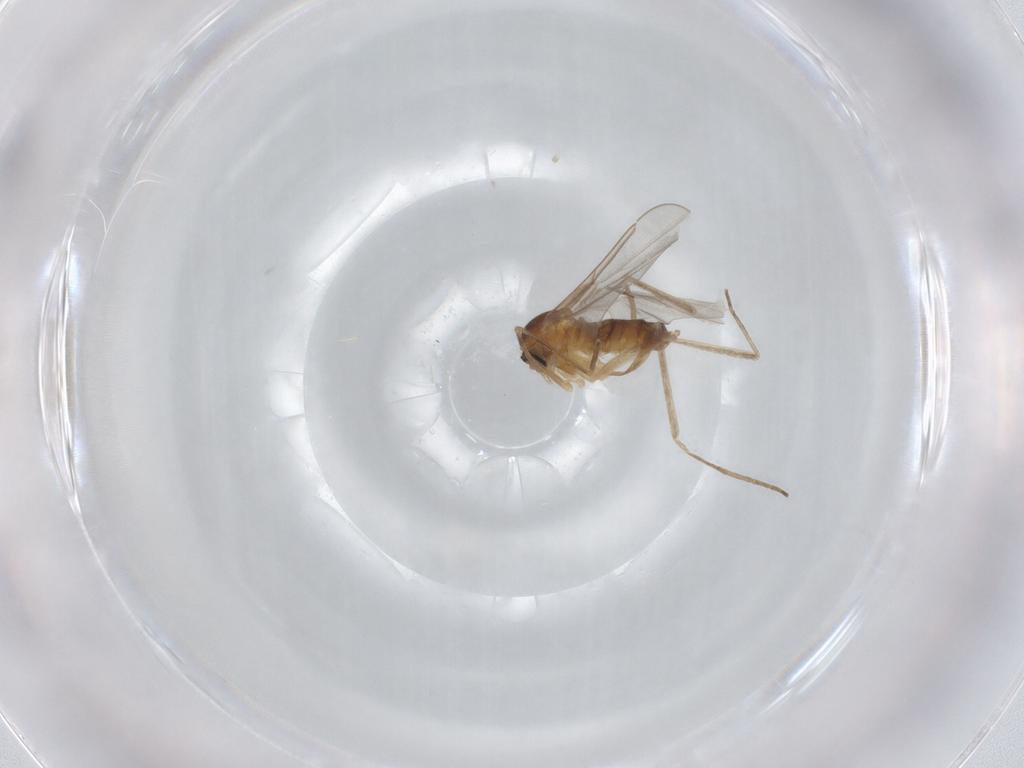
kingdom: Animalia
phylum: Arthropoda
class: Insecta
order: Diptera
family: Cecidomyiidae
